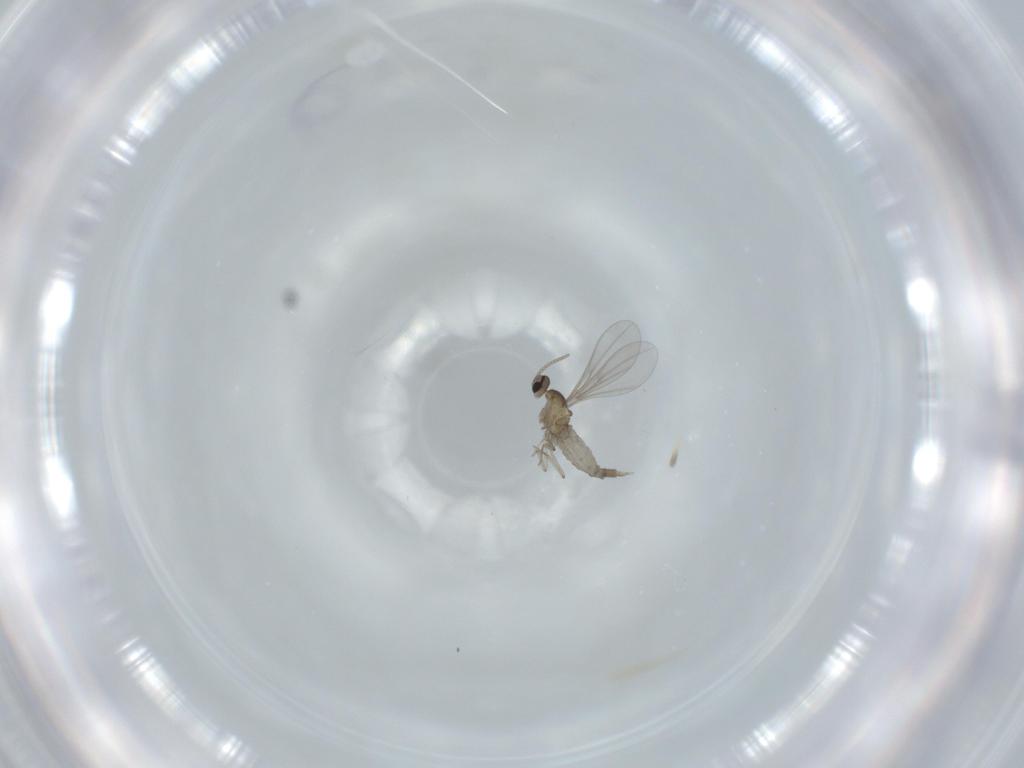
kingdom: Animalia
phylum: Arthropoda
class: Insecta
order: Diptera
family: Cecidomyiidae
